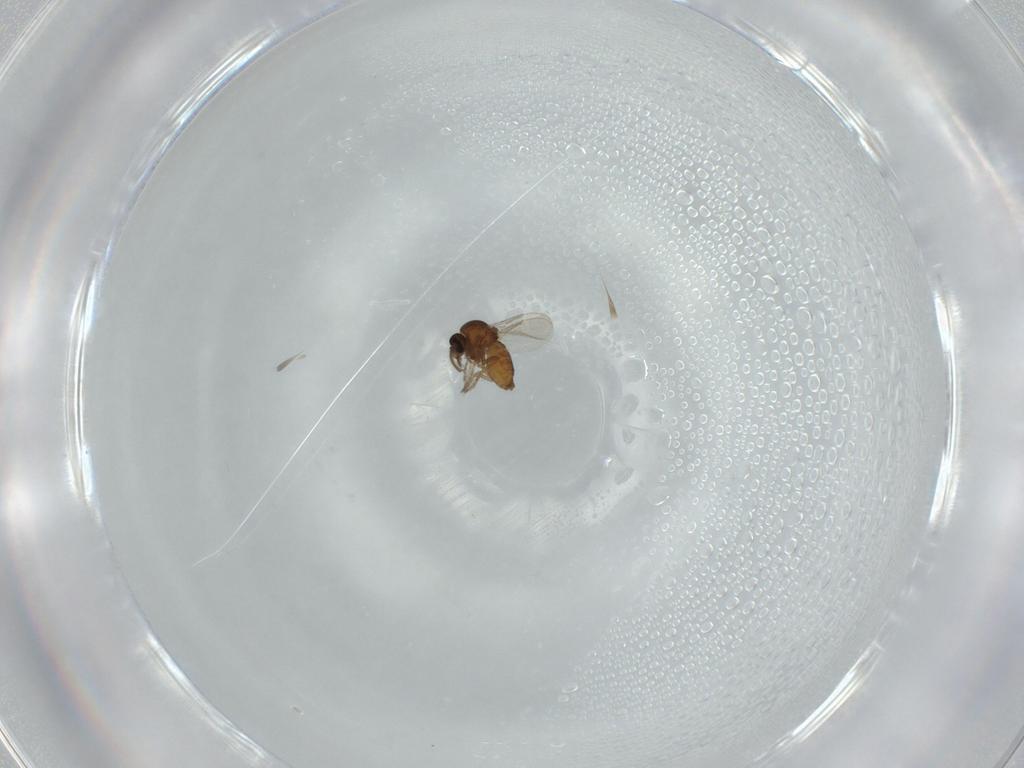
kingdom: Animalia
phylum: Arthropoda
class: Insecta
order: Diptera
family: Ceratopogonidae
